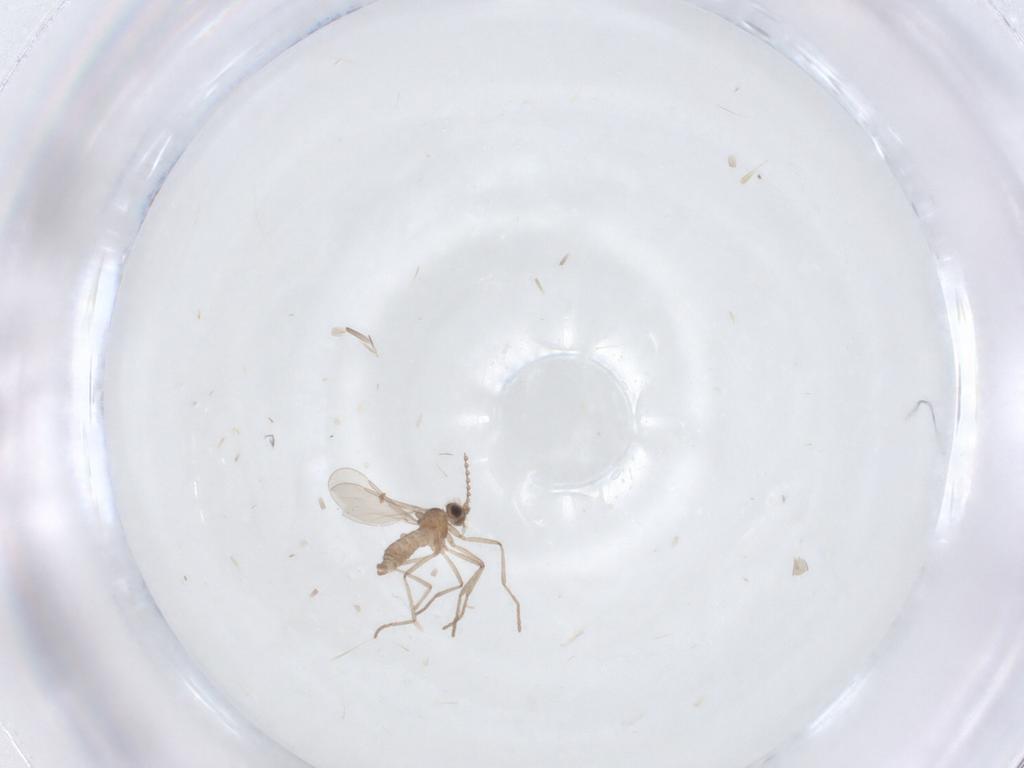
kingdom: Animalia
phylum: Arthropoda
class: Insecta
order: Diptera
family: Cecidomyiidae
